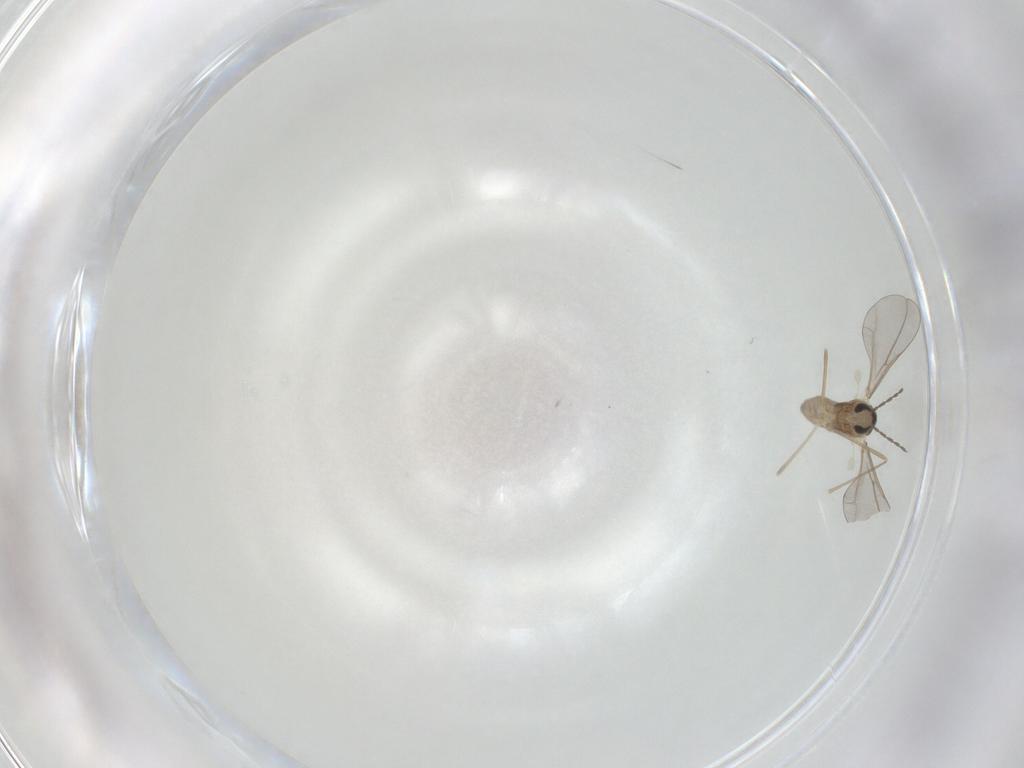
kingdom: Animalia
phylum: Arthropoda
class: Insecta
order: Diptera
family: Cecidomyiidae
